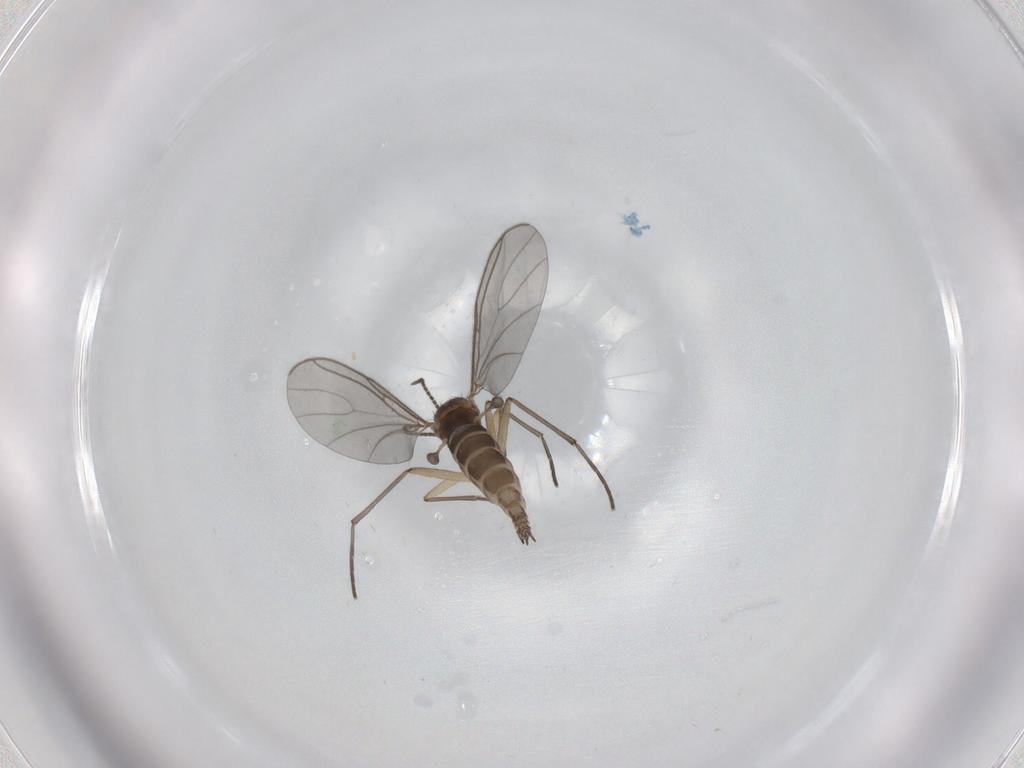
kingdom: Animalia
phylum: Arthropoda
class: Insecta
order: Diptera
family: Sciaridae
